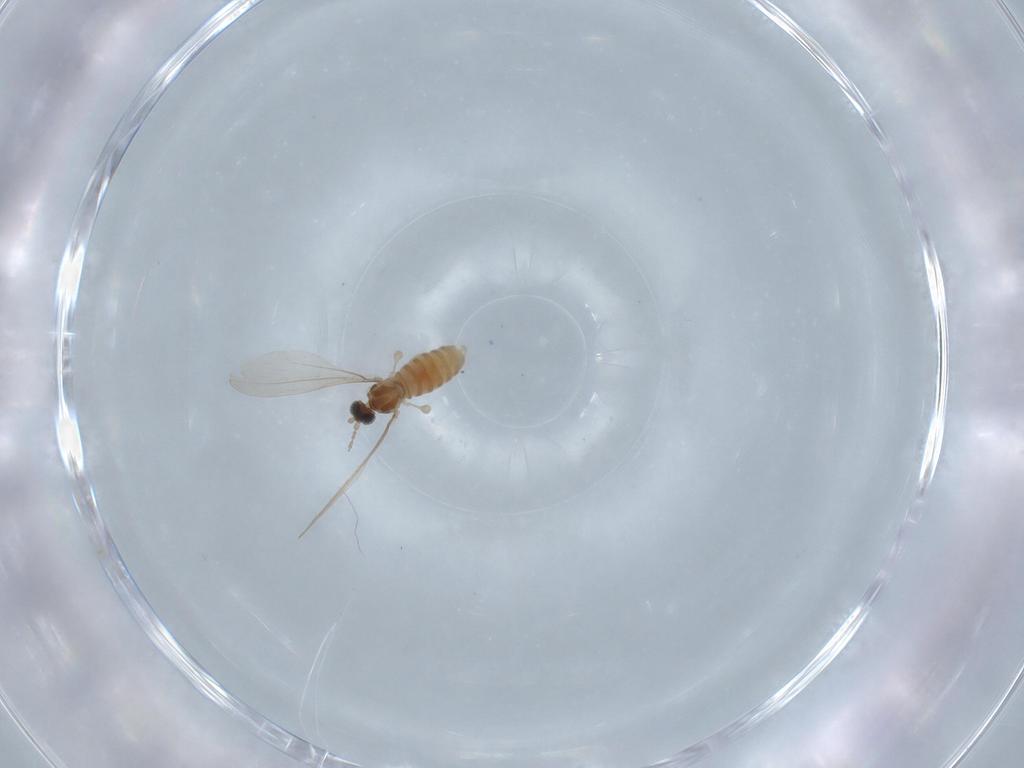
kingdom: Animalia
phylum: Arthropoda
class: Insecta
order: Diptera
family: Cecidomyiidae
